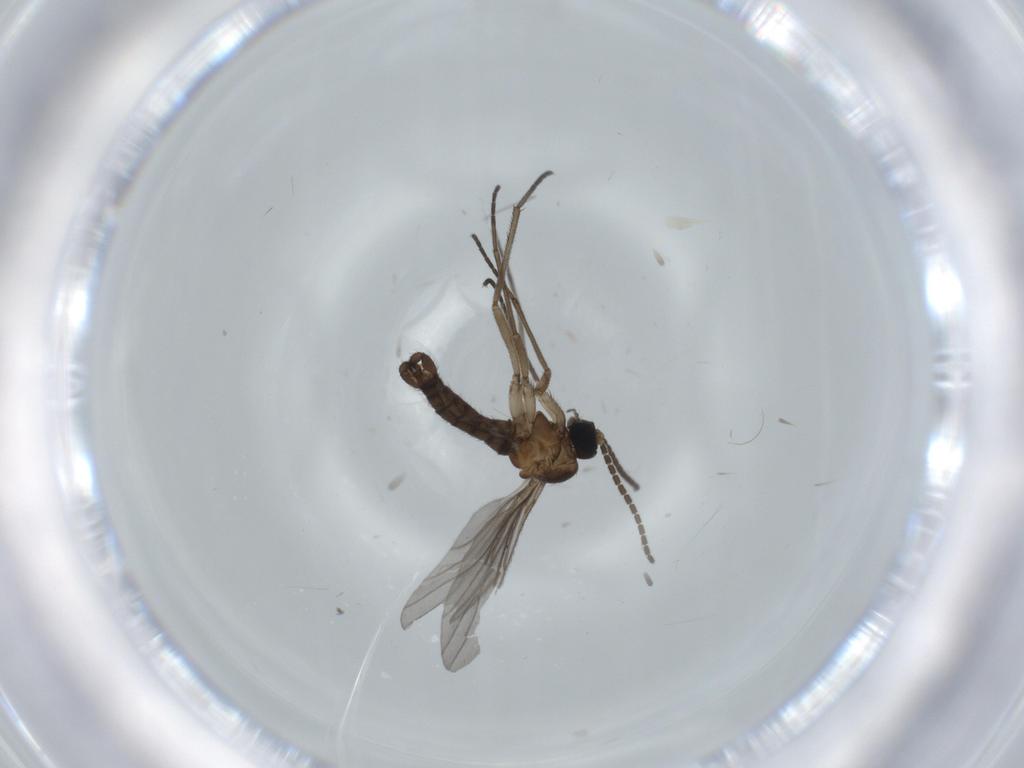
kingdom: Animalia
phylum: Arthropoda
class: Insecta
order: Diptera
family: Sciaridae
